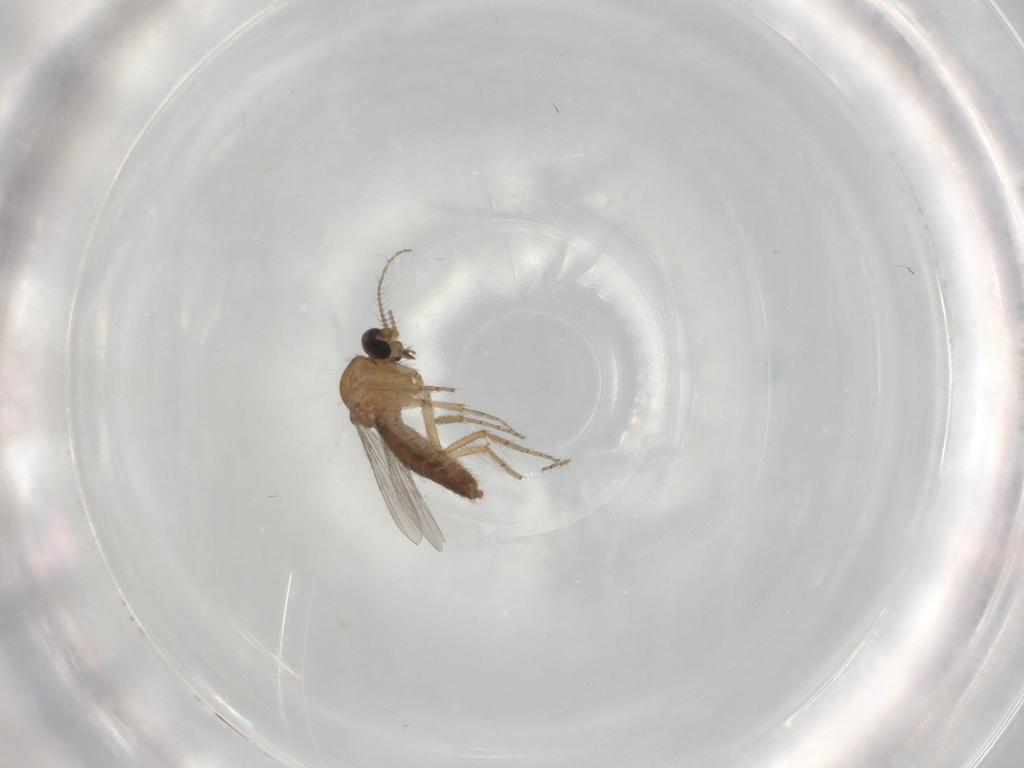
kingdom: Animalia
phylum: Arthropoda
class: Insecta
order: Diptera
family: Ceratopogonidae
